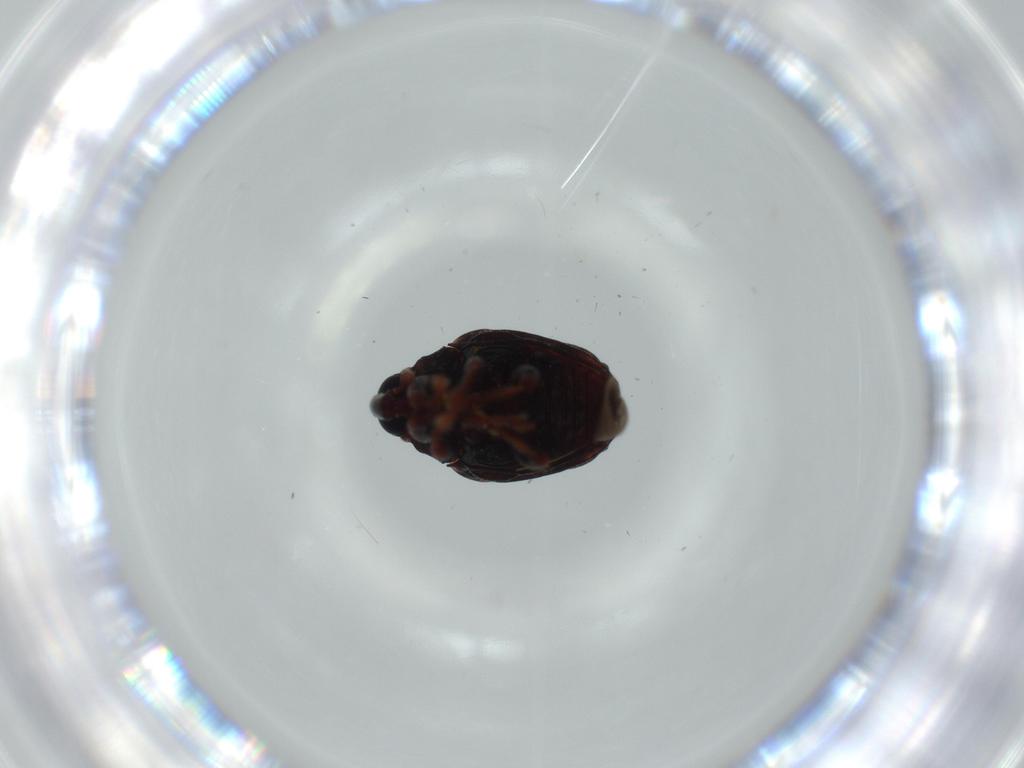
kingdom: Animalia
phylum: Arthropoda
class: Insecta
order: Coleoptera
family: Curculionidae
